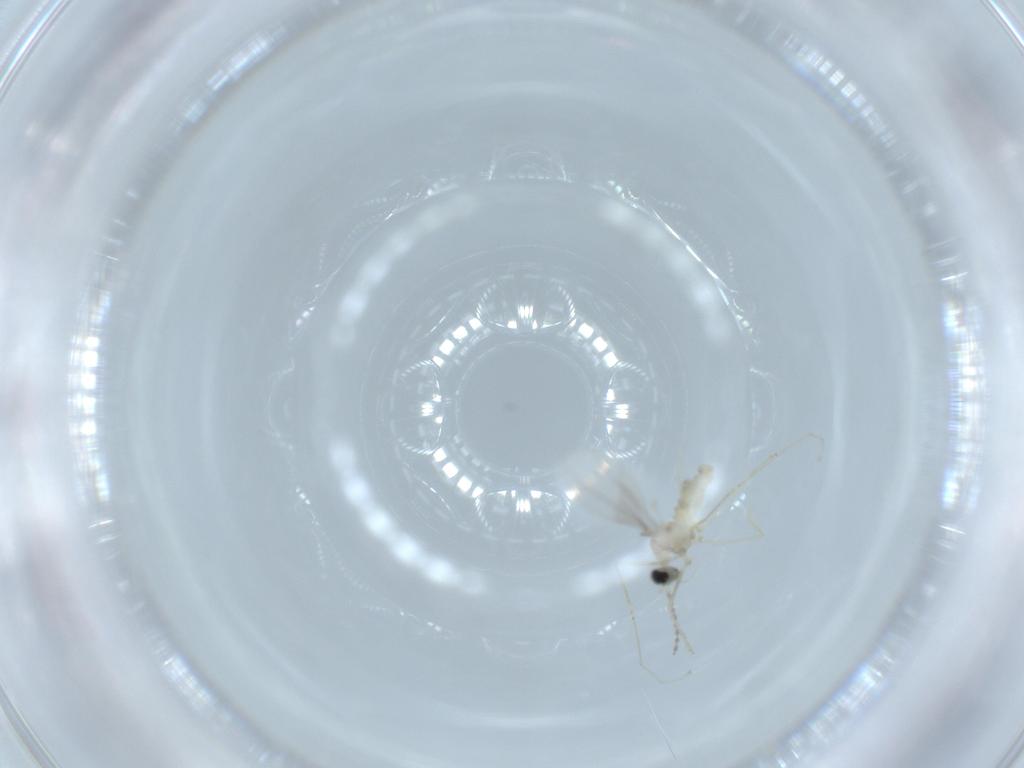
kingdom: Animalia
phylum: Arthropoda
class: Insecta
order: Diptera
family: Cecidomyiidae
